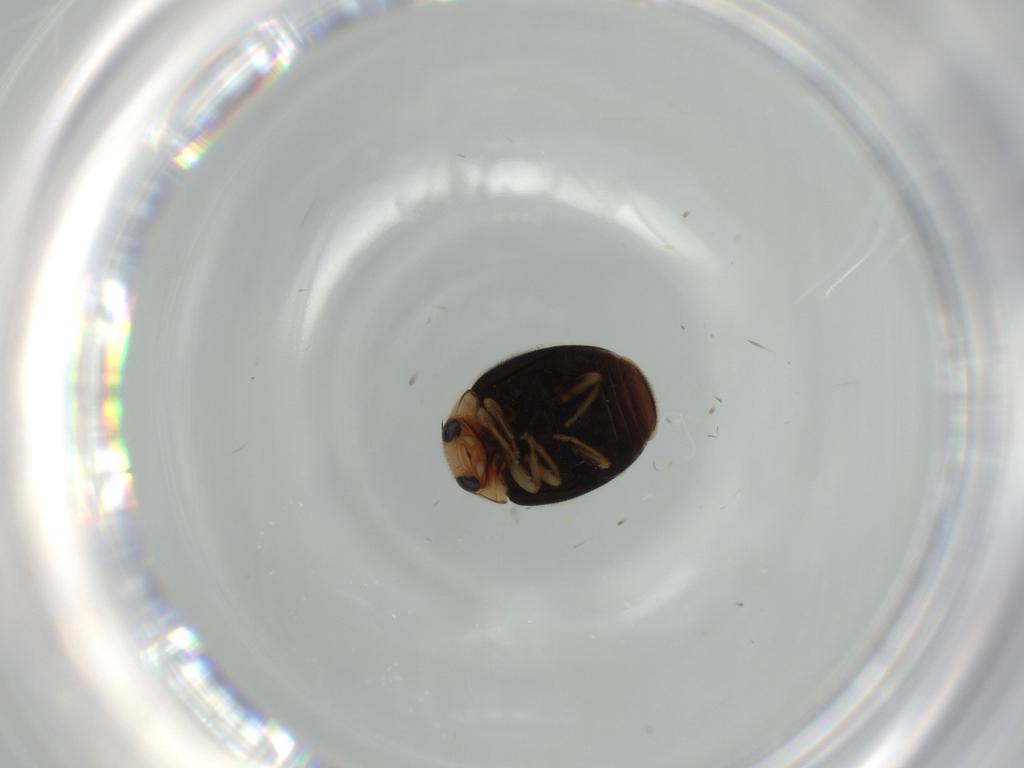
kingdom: Animalia
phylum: Arthropoda
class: Insecta
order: Coleoptera
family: Coccinellidae
